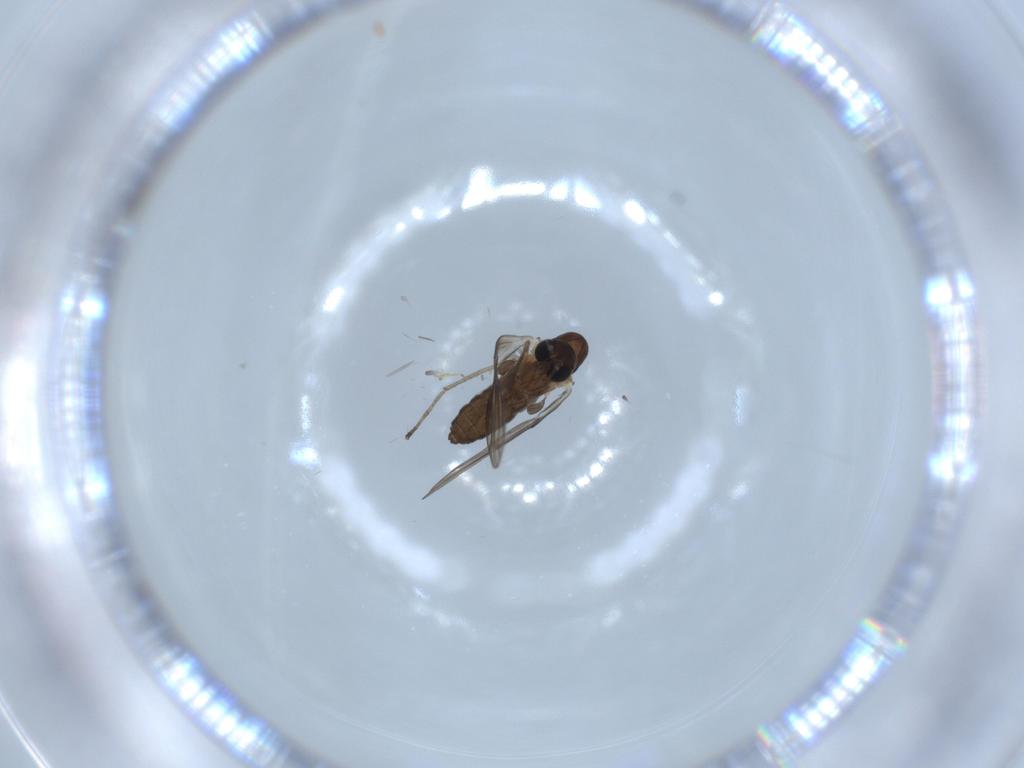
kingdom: Animalia
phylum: Arthropoda
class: Insecta
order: Diptera
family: Psychodidae
